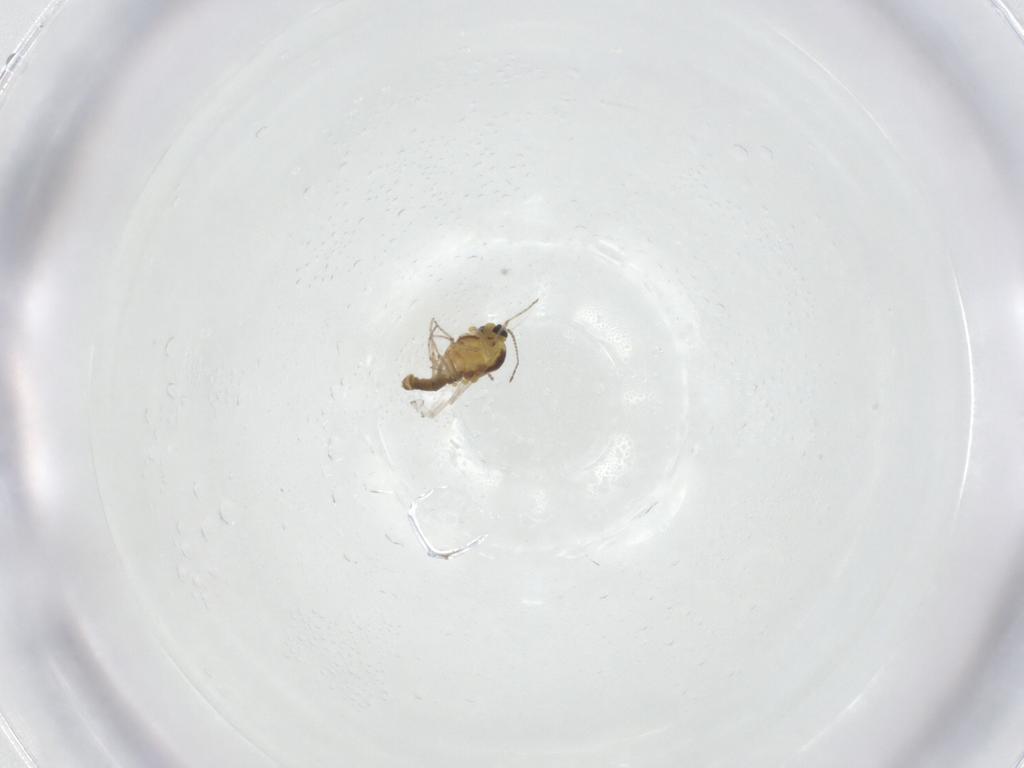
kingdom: Animalia
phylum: Arthropoda
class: Insecta
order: Diptera
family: Ceratopogonidae
